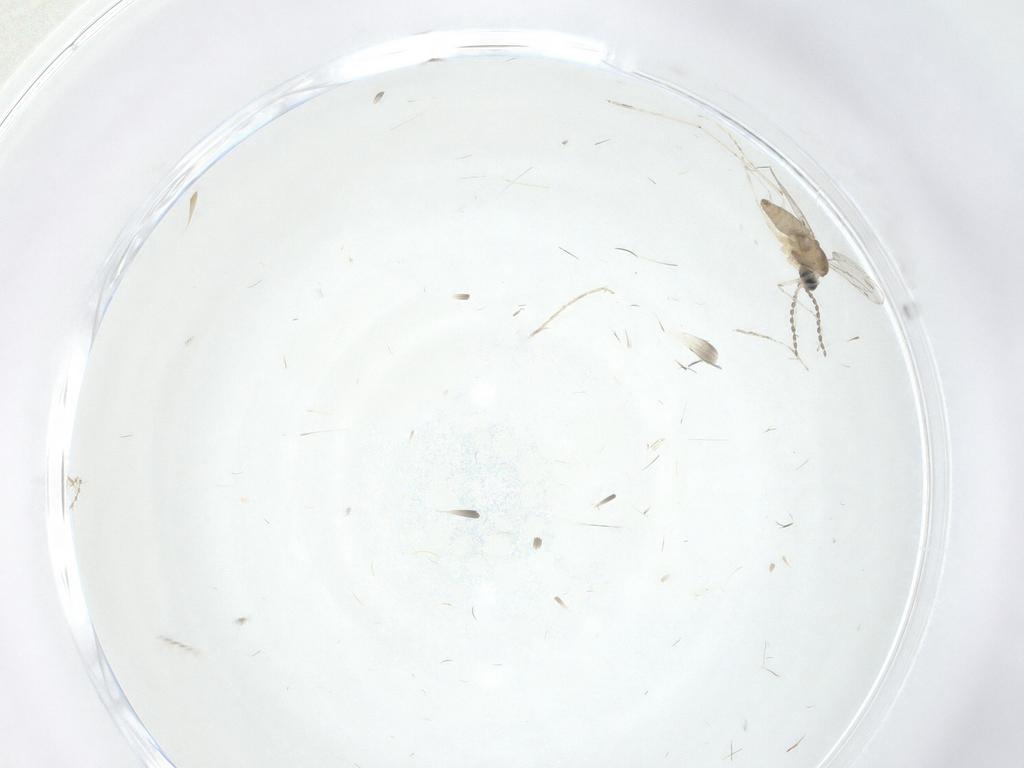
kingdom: Animalia
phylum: Arthropoda
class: Insecta
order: Diptera
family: Cecidomyiidae
